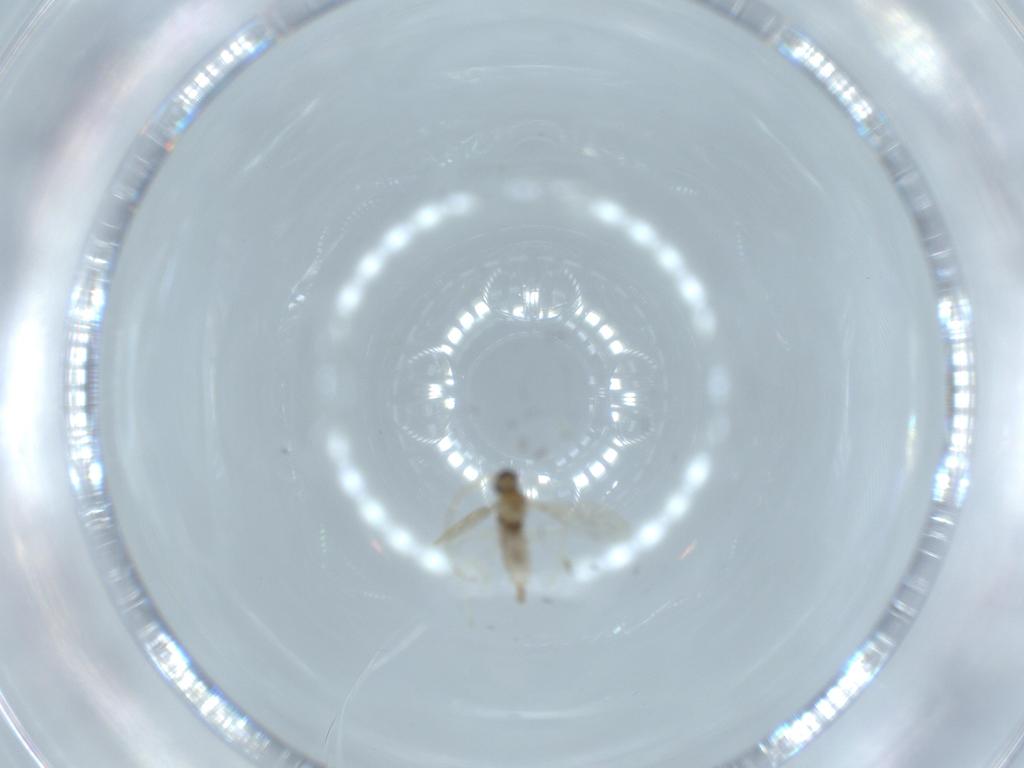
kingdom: Animalia
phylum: Arthropoda
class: Insecta
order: Diptera
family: Cecidomyiidae
